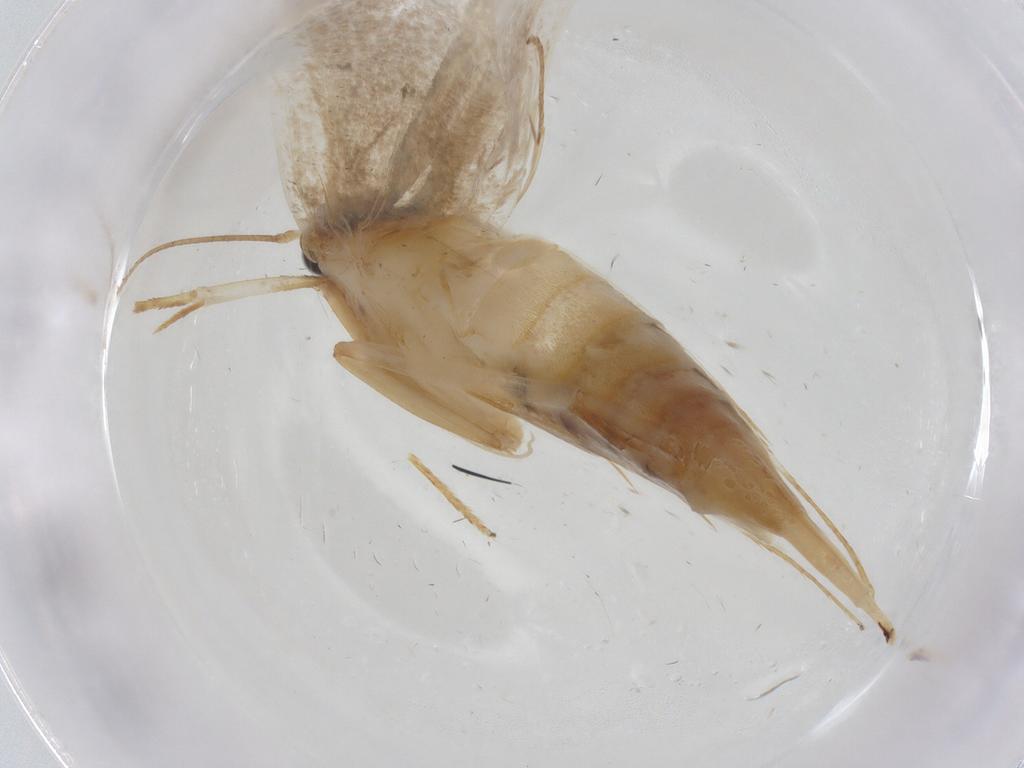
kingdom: Animalia
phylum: Arthropoda
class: Insecta
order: Lepidoptera
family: Oecophoridae
